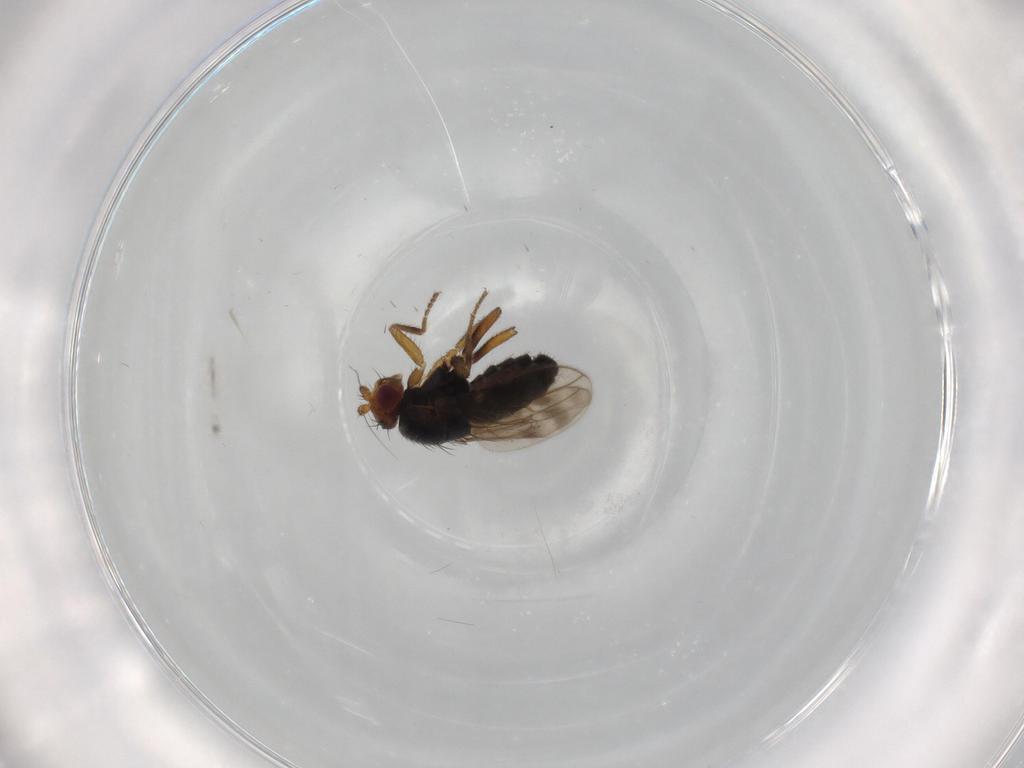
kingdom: Animalia
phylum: Arthropoda
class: Insecta
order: Diptera
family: Sphaeroceridae
